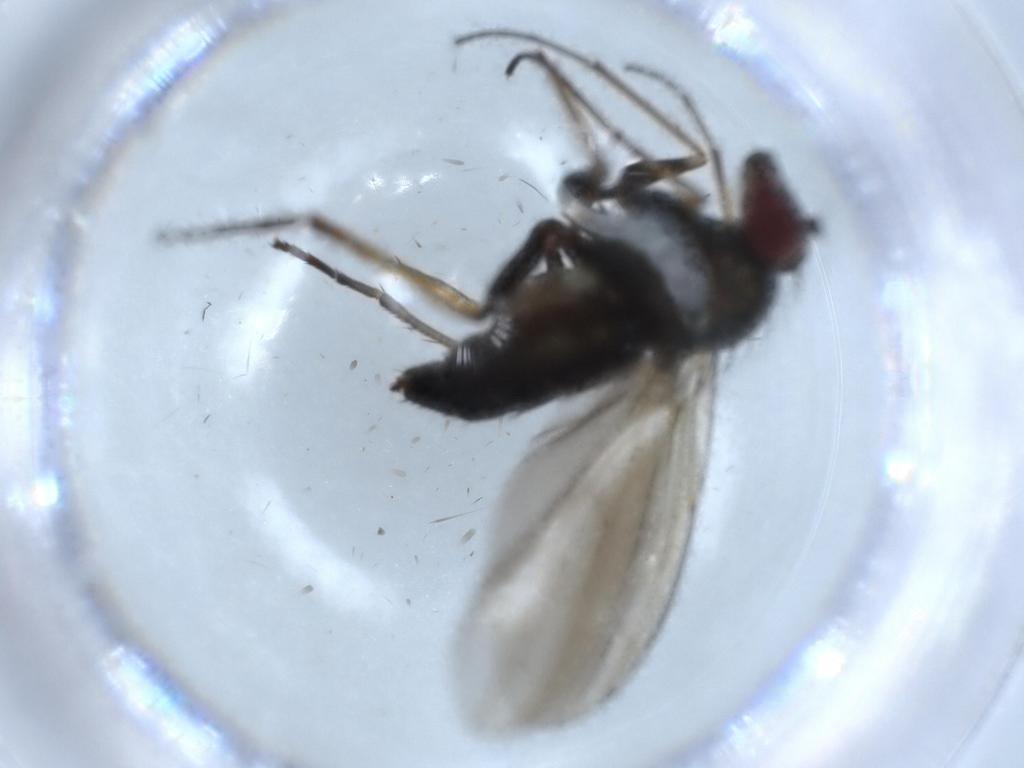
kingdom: Animalia
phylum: Arthropoda
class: Insecta
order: Diptera
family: Dolichopodidae
